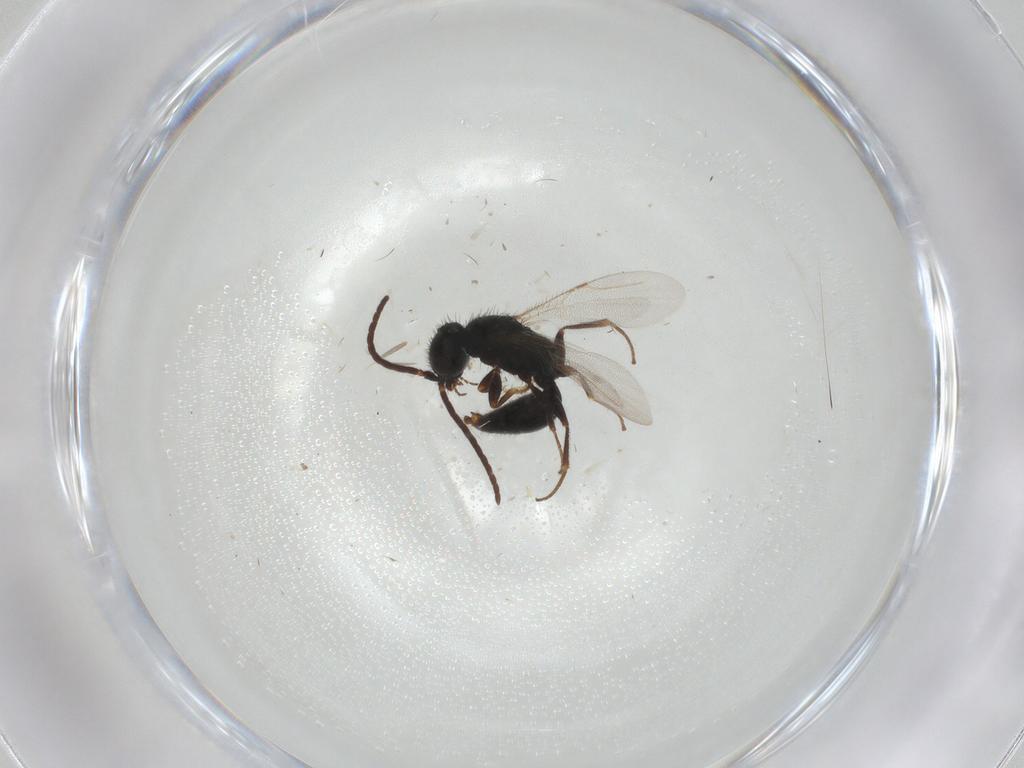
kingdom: Animalia
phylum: Arthropoda
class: Insecta
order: Hymenoptera
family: Bethylidae
